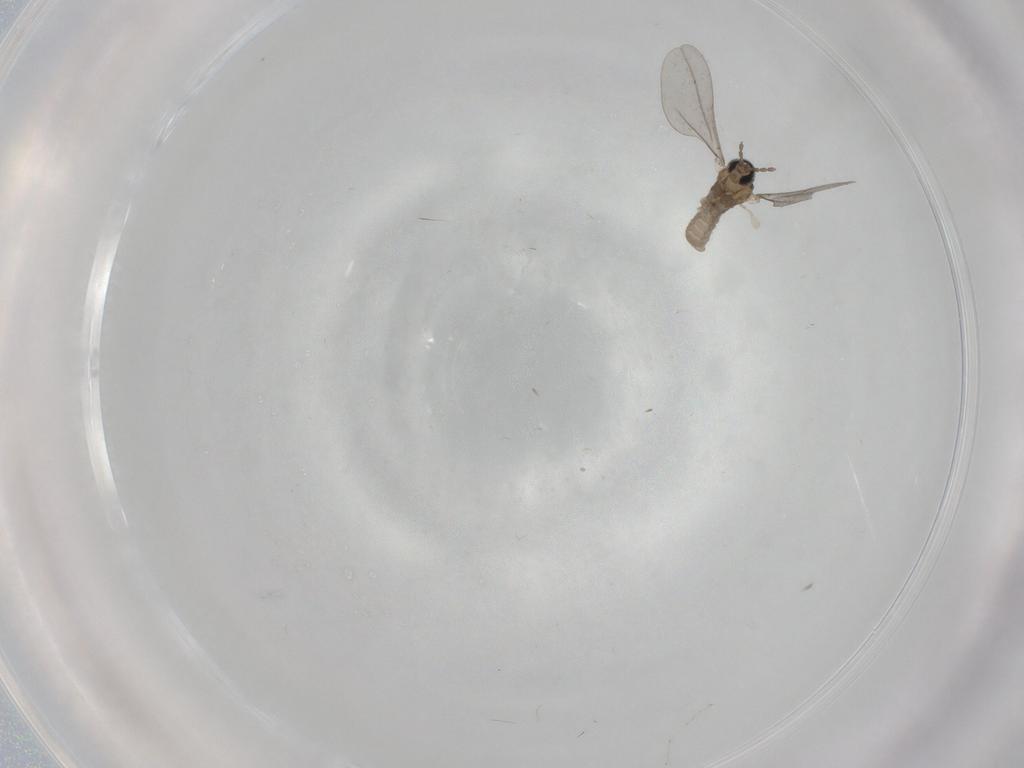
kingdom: Animalia
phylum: Arthropoda
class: Insecta
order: Diptera
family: Cecidomyiidae
